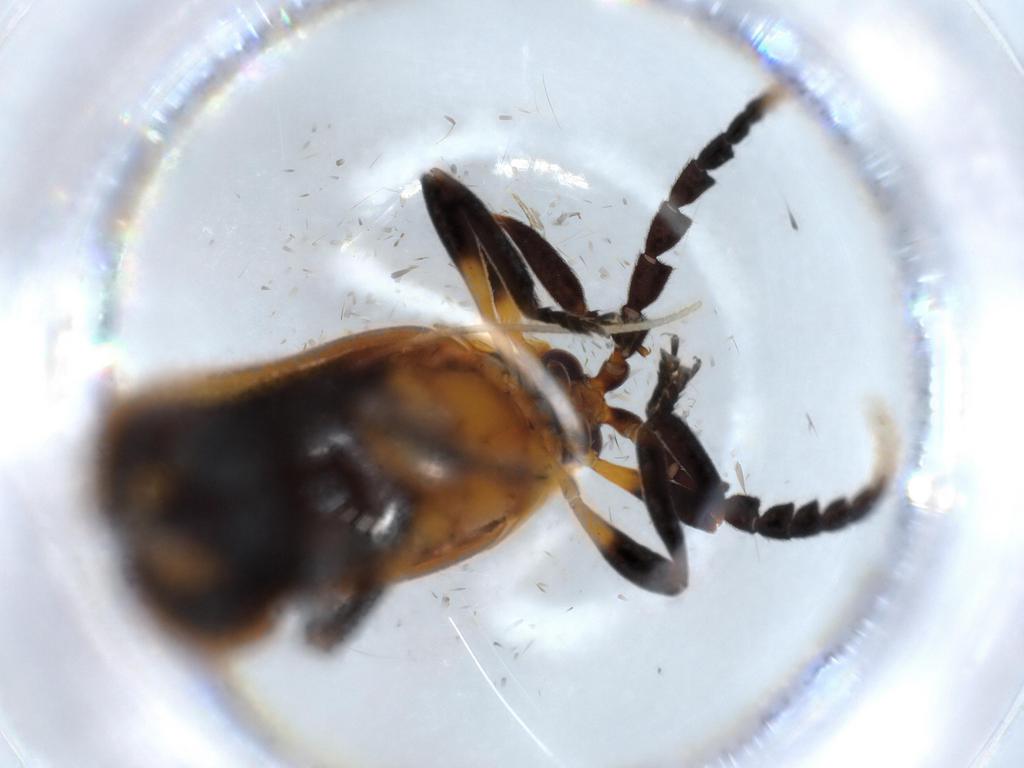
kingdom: Animalia
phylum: Arthropoda
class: Insecta
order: Coleoptera
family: Lycidae
